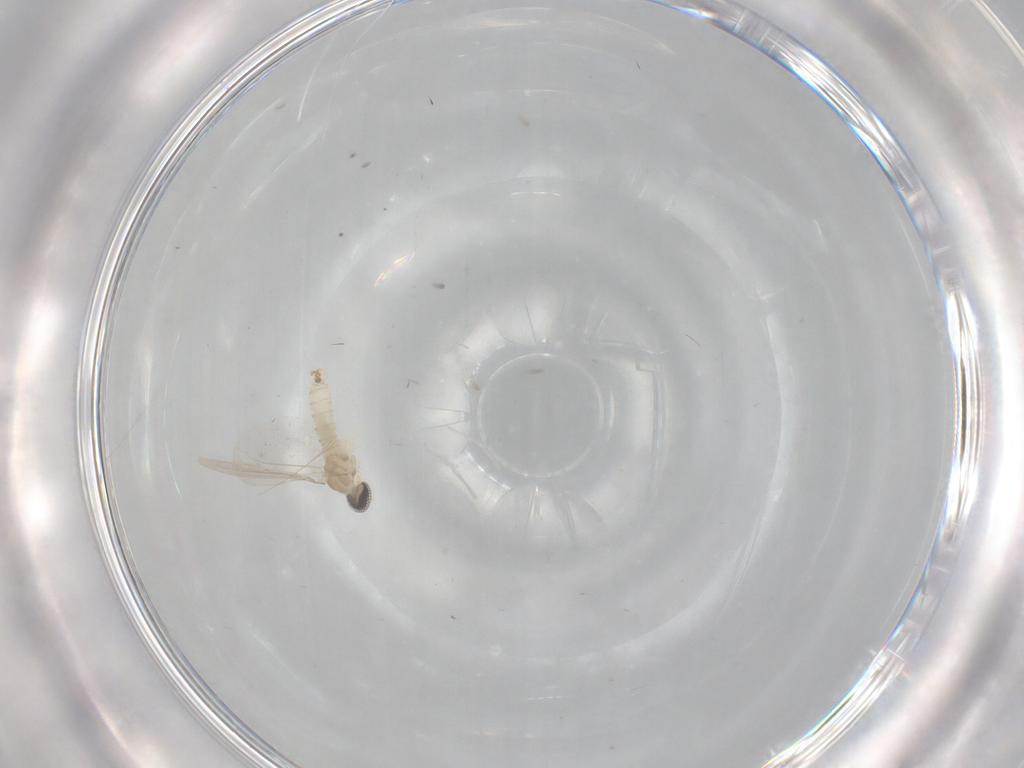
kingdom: Animalia
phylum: Arthropoda
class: Insecta
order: Diptera
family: Cecidomyiidae
